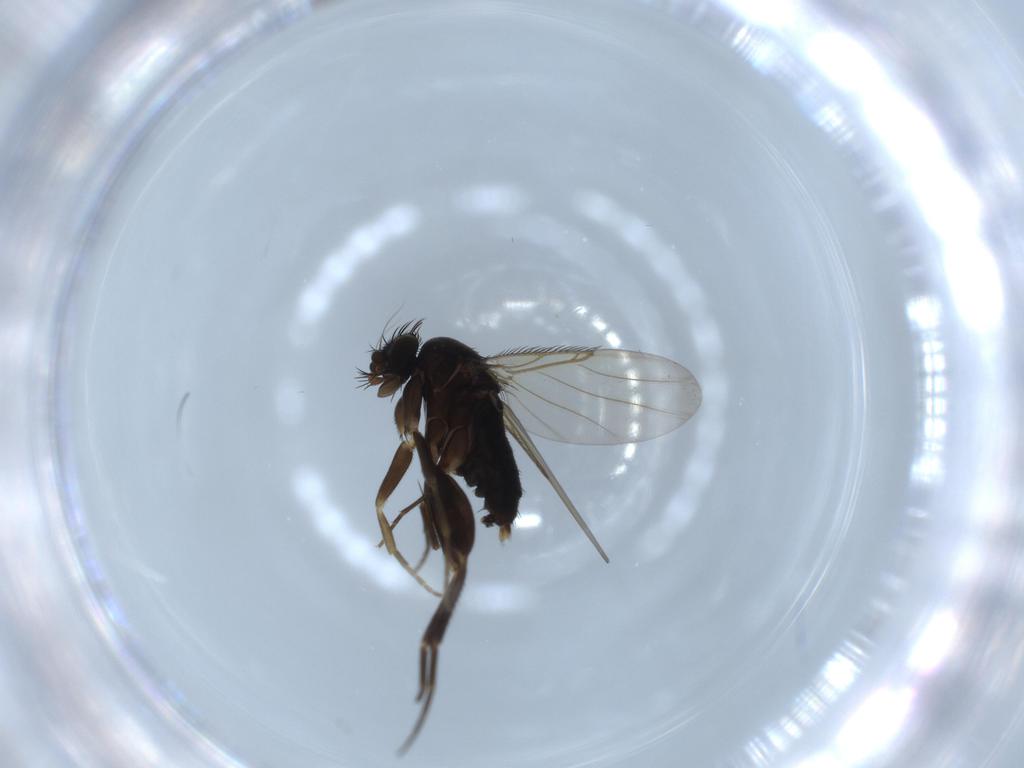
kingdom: Animalia
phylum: Arthropoda
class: Insecta
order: Diptera
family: Phoridae
